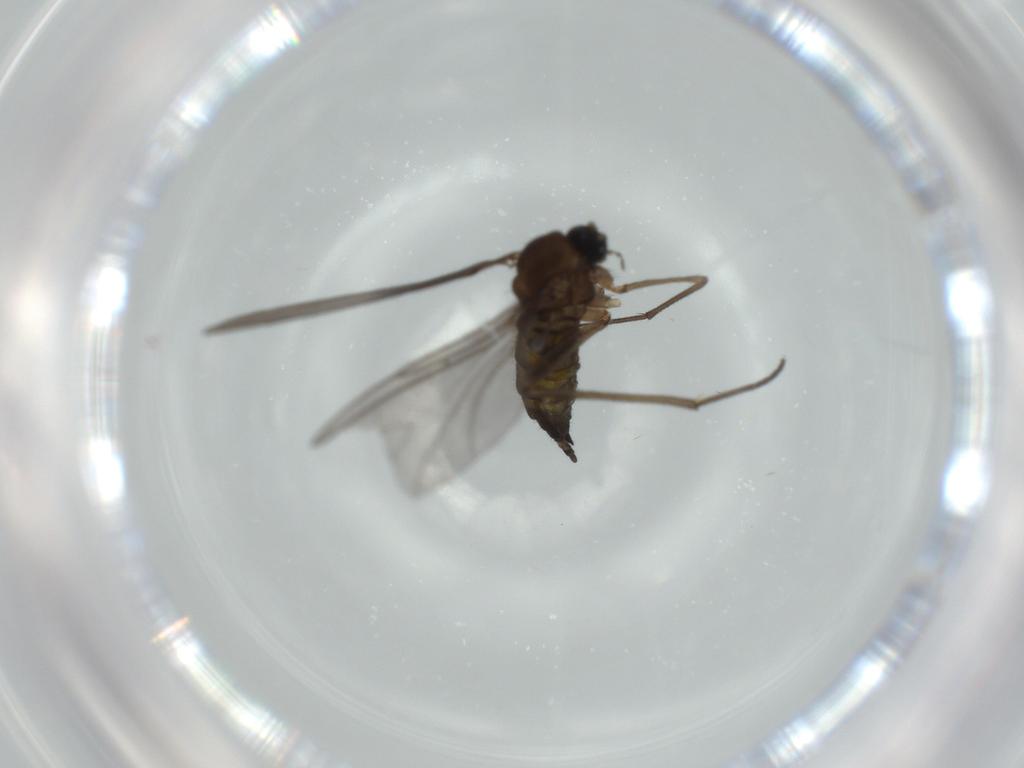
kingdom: Animalia
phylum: Arthropoda
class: Insecta
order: Diptera
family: Sciaridae
